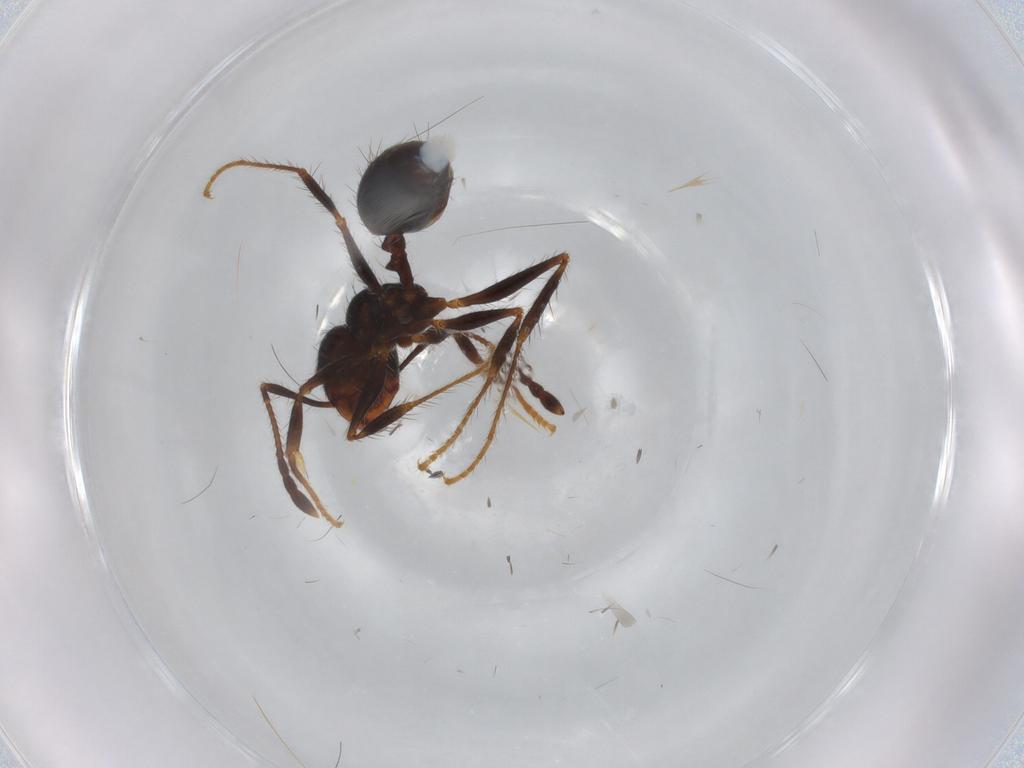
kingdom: Animalia
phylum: Arthropoda
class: Insecta
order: Hymenoptera
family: Formicidae
